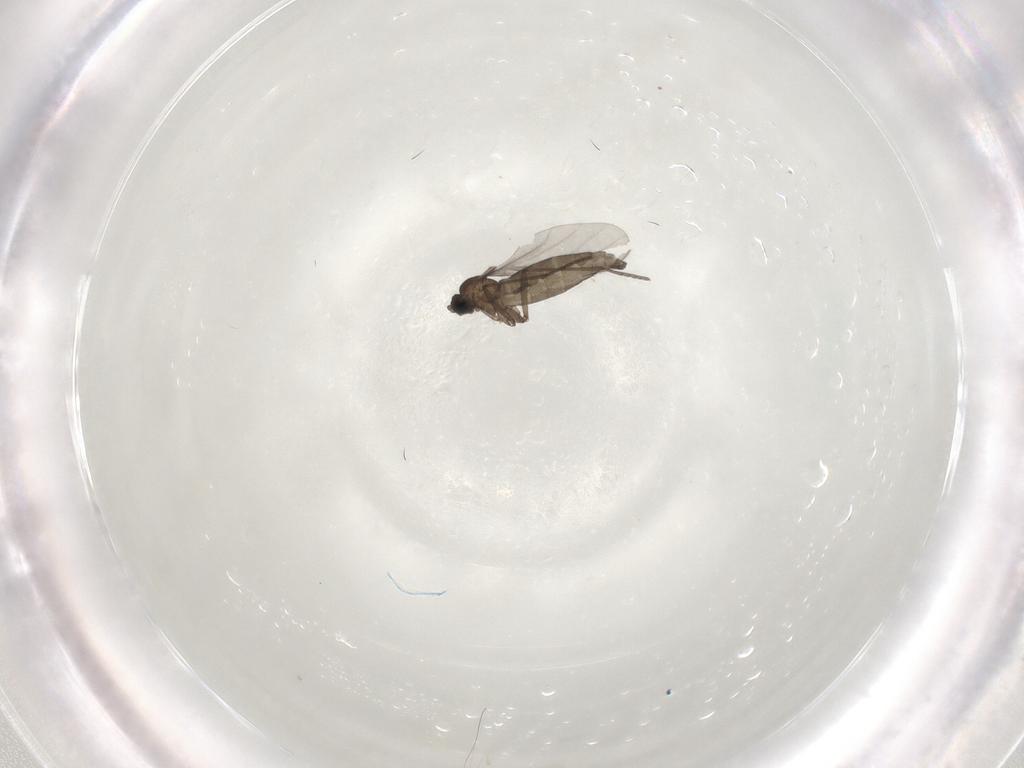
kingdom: Animalia
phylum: Arthropoda
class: Insecta
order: Diptera
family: Sciaridae
